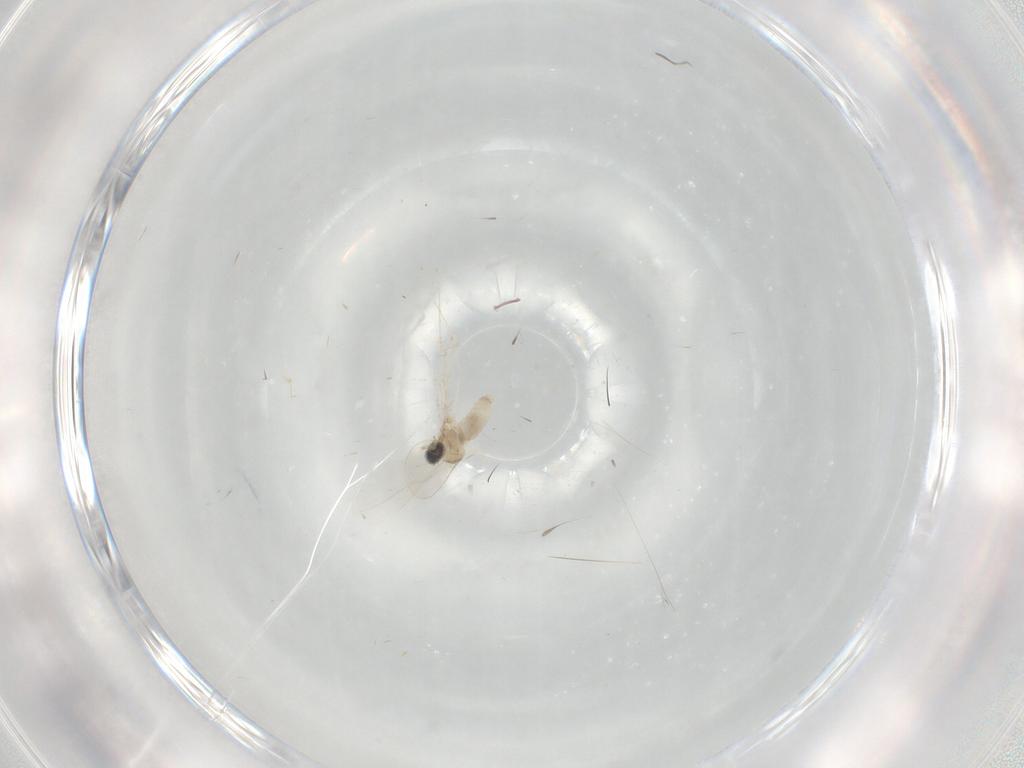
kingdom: Animalia
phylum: Arthropoda
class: Insecta
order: Diptera
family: Cecidomyiidae
